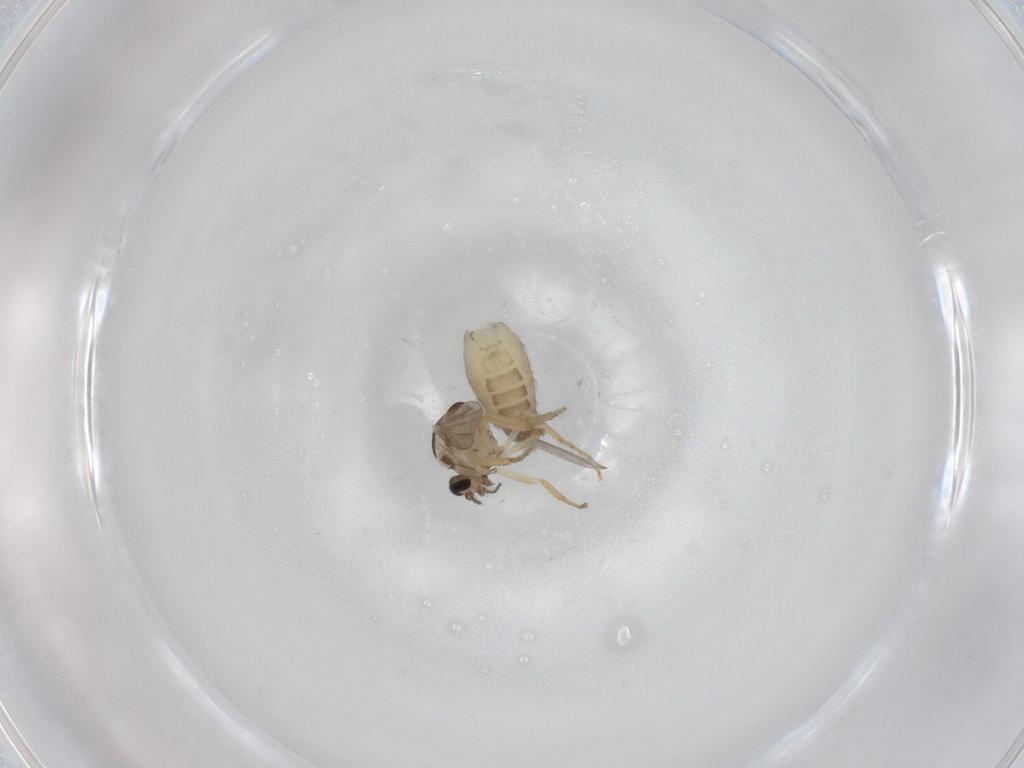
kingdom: Animalia
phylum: Arthropoda
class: Insecta
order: Diptera
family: Ceratopogonidae
